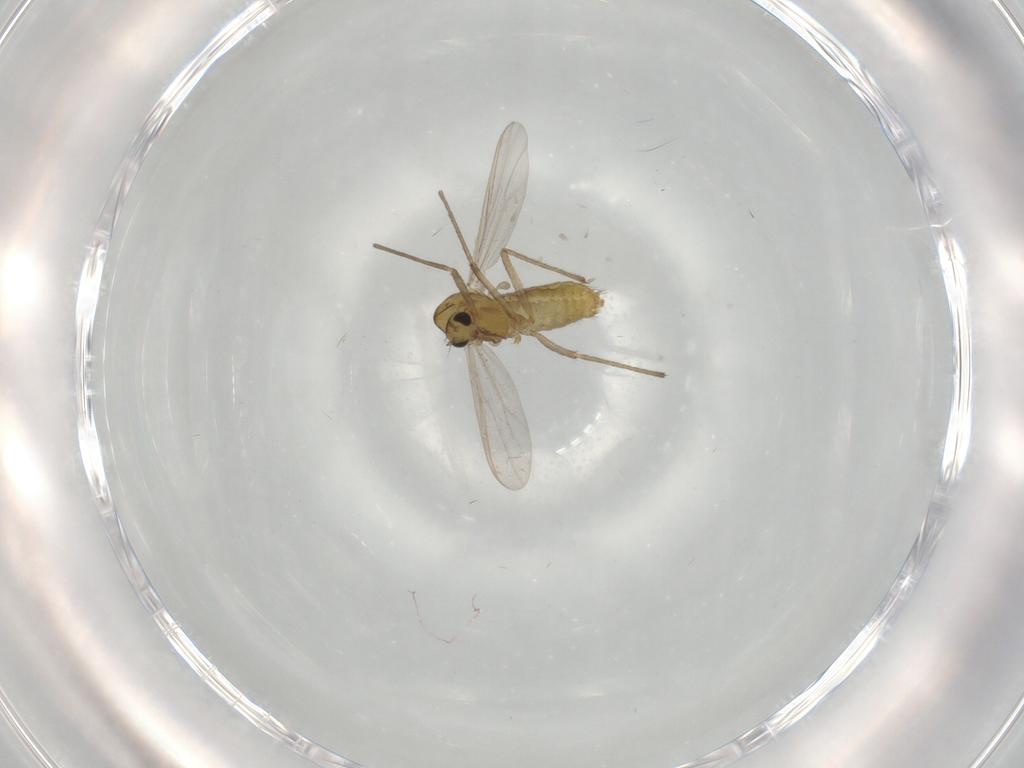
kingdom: Animalia
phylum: Arthropoda
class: Insecta
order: Diptera
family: Chironomidae
